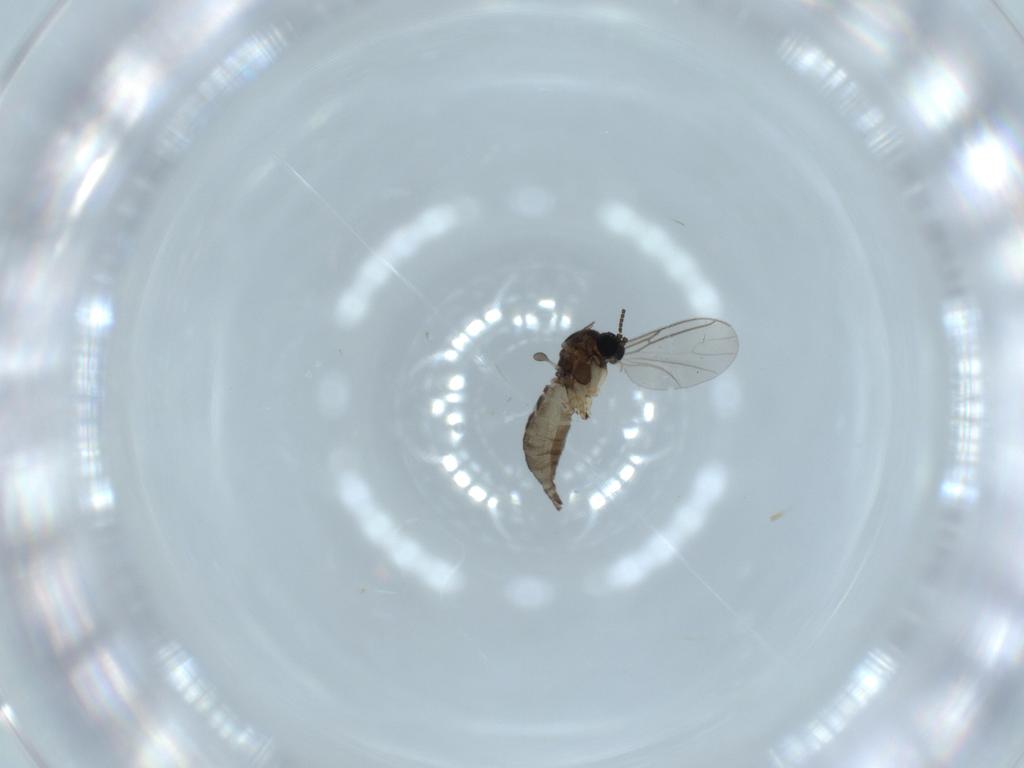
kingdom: Animalia
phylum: Arthropoda
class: Insecta
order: Diptera
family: Sciaridae
